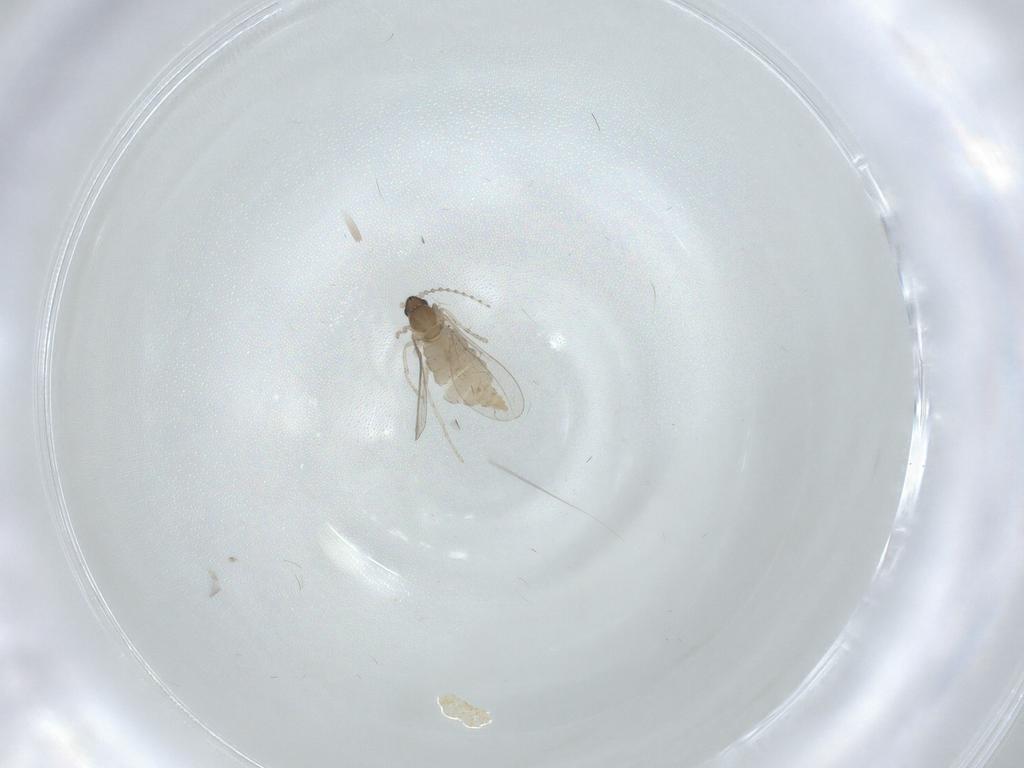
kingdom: Animalia
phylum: Arthropoda
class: Insecta
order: Diptera
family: Cecidomyiidae
